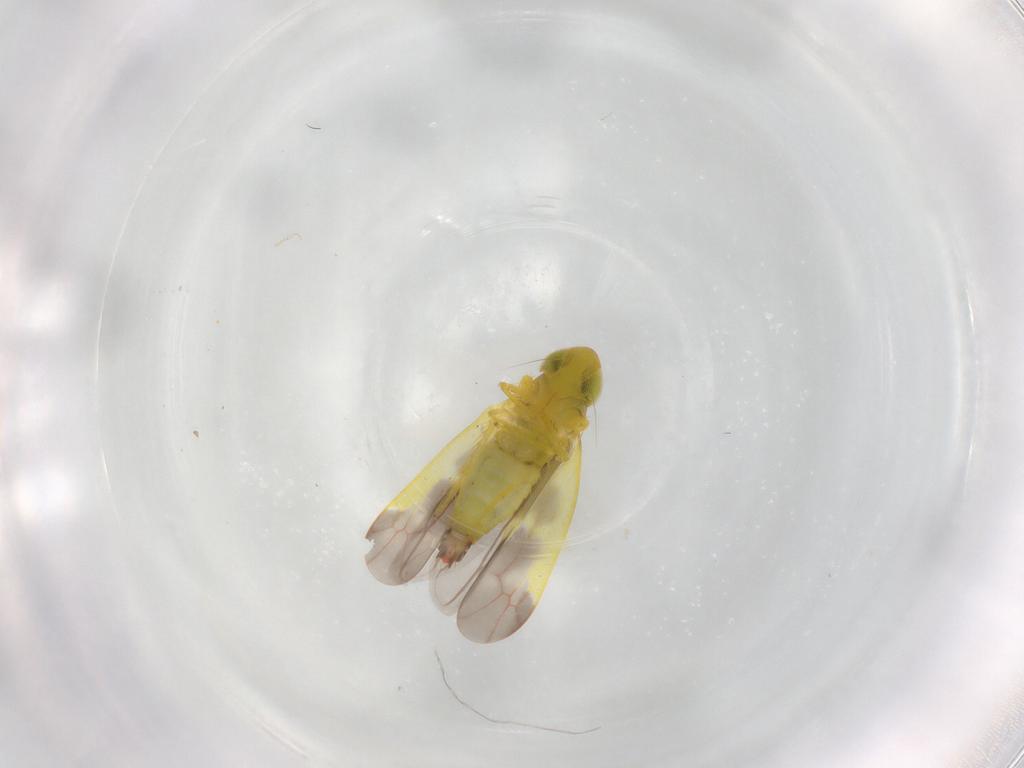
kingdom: Animalia
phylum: Arthropoda
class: Insecta
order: Hemiptera
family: Cicadellidae
